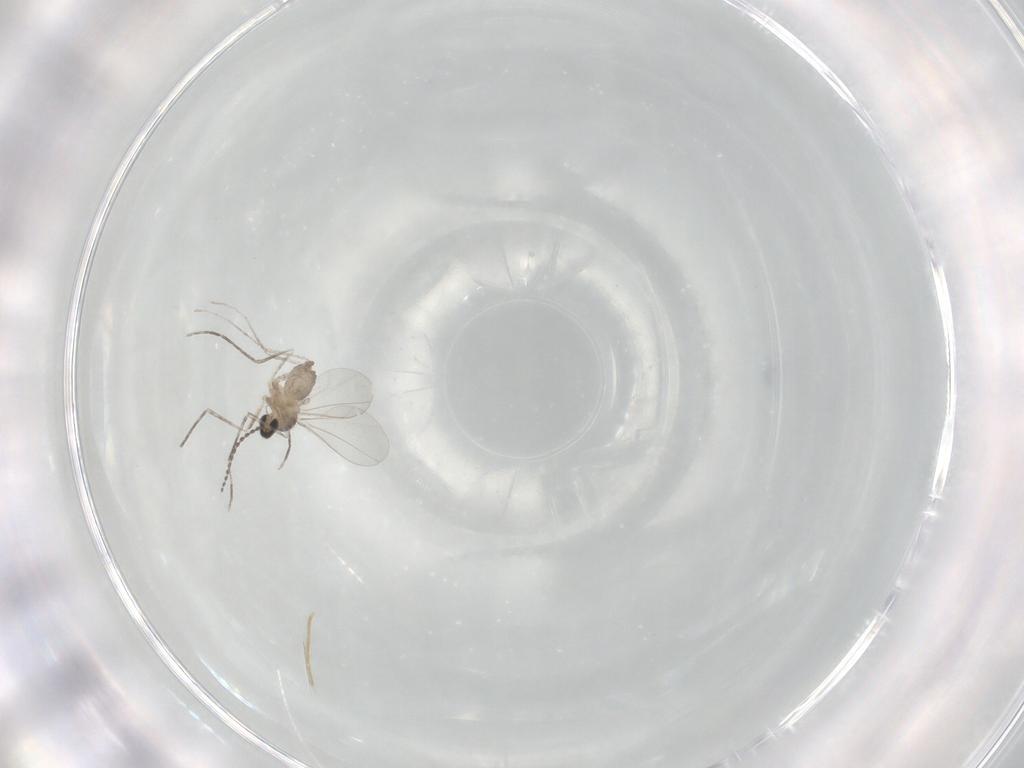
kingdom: Animalia
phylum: Arthropoda
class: Insecta
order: Diptera
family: Cecidomyiidae
